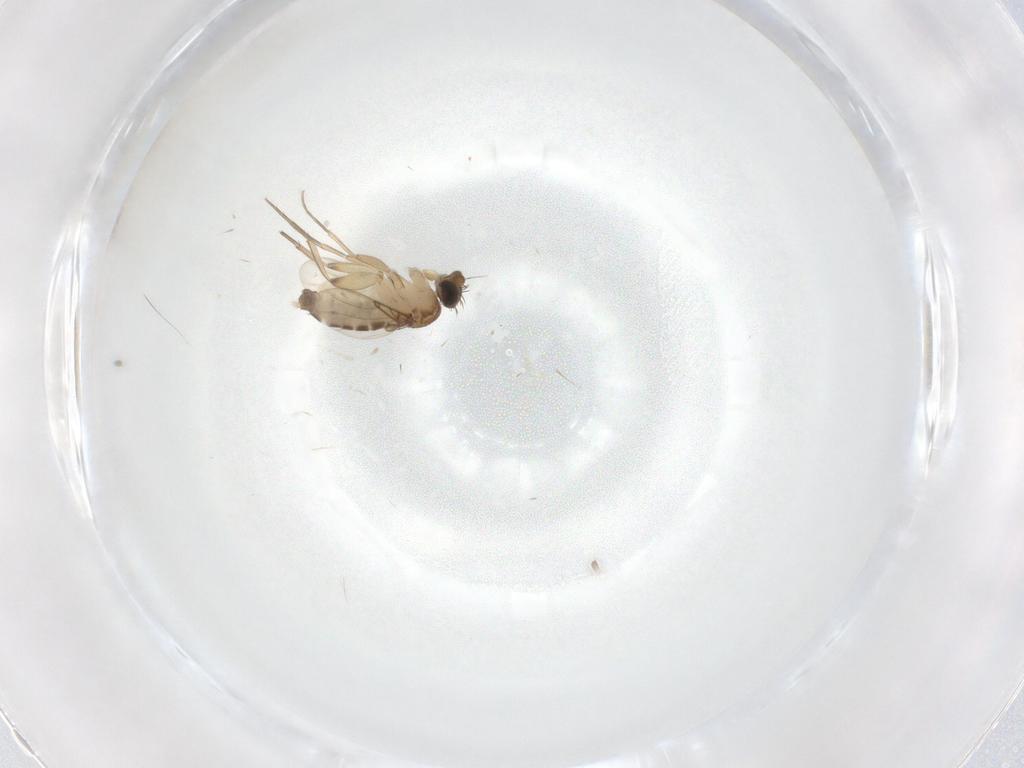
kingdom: Animalia
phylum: Arthropoda
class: Insecta
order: Diptera
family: Phoridae
